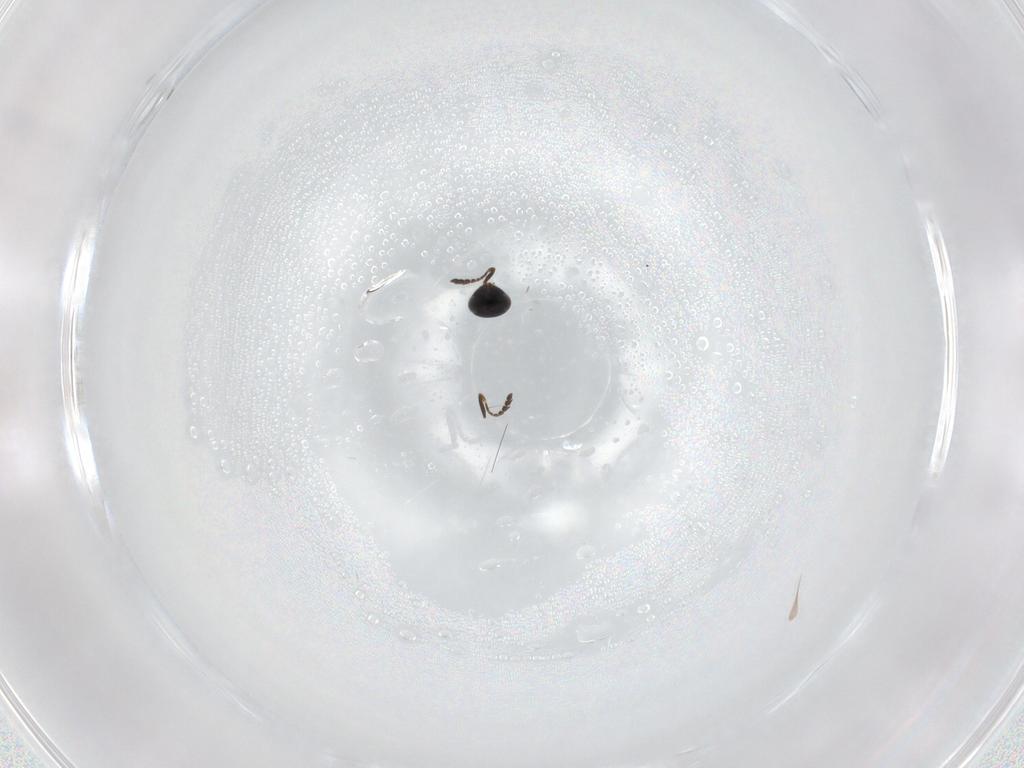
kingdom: Animalia
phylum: Arthropoda
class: Insecta
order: Hymenoptera
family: Platygastridae
